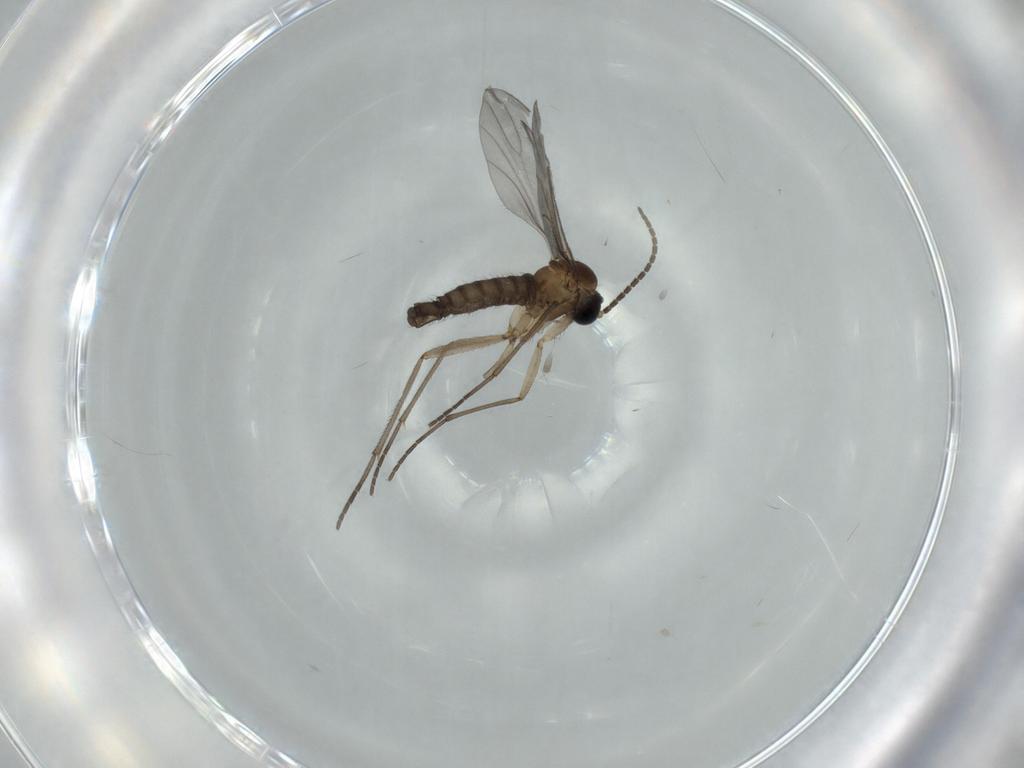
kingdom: Animalia
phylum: Arthropoda
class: Insecta
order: Diptera
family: Sciaridae
